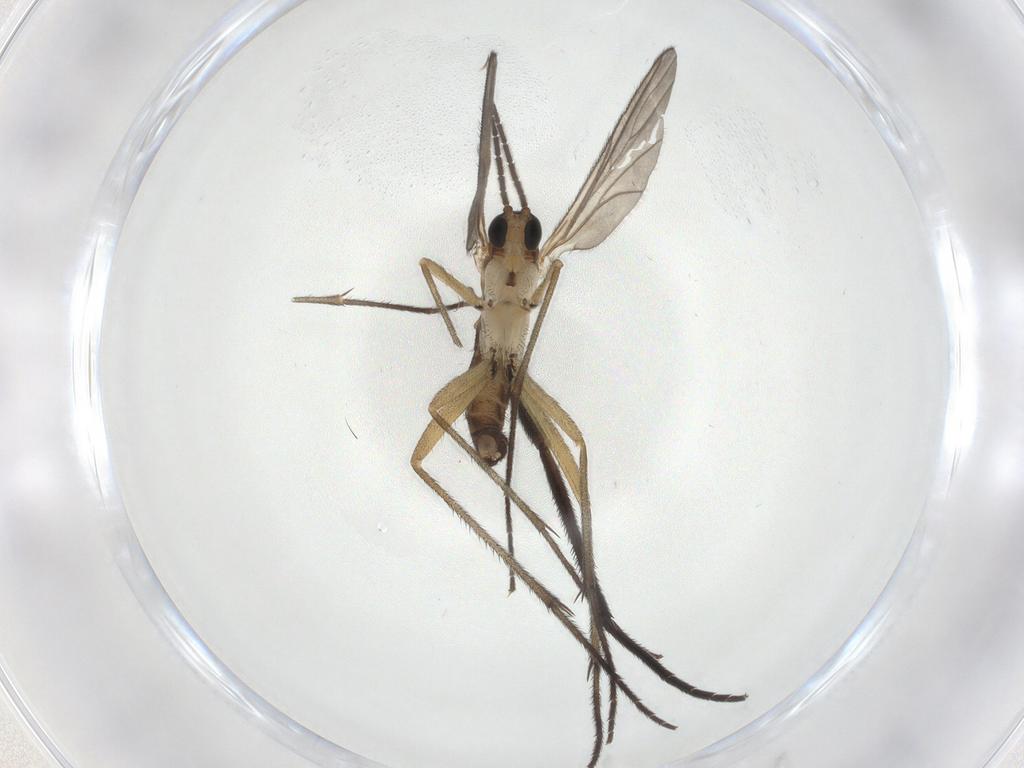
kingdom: Animalia
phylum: Arthropoda
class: Insecta
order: Diptera
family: Sciaridae
